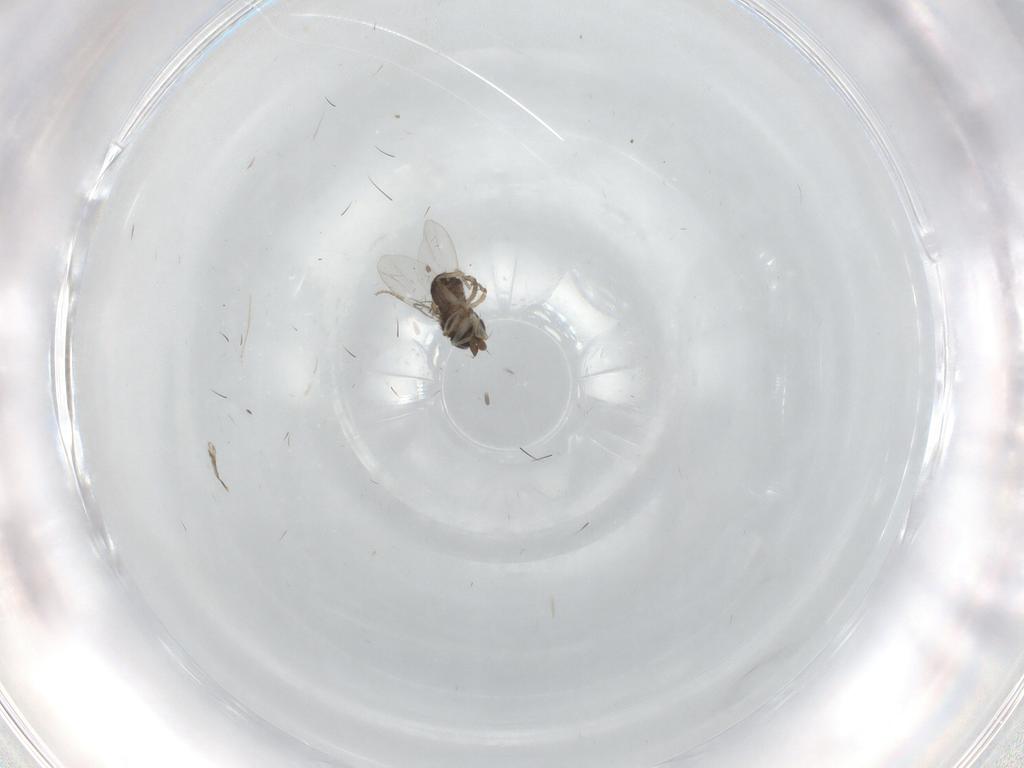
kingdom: Animalia
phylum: Arthropoda
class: Insecta
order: Diptera
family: Phoridae
